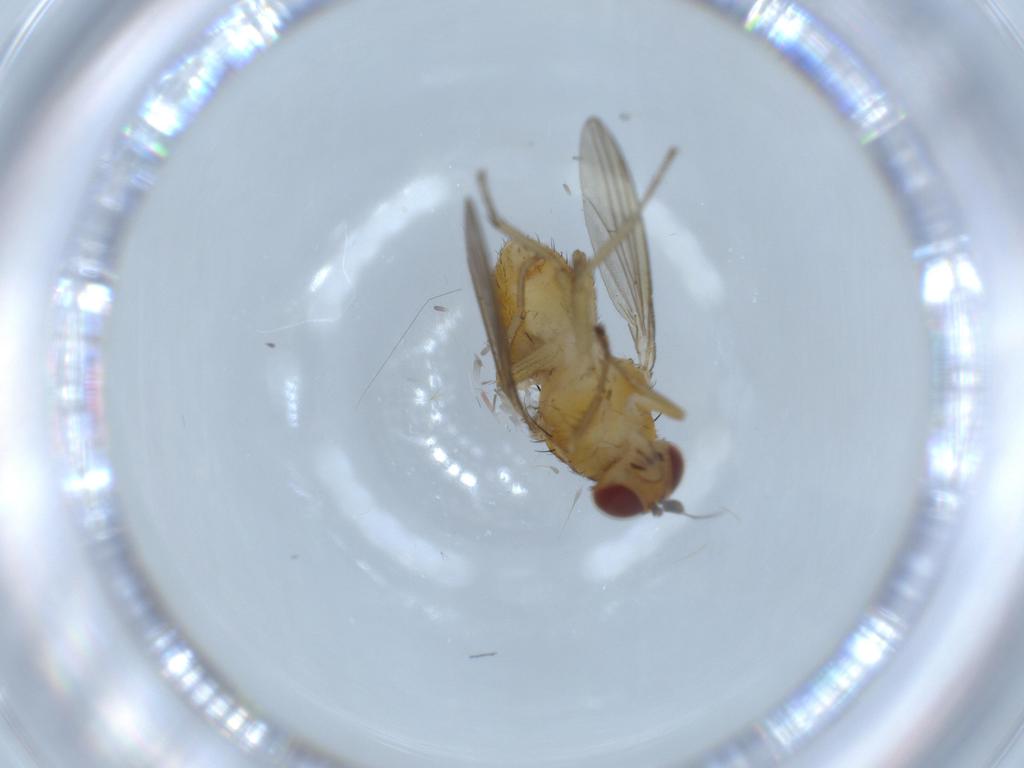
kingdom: Animalia
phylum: Arthropoda
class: Insecta
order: Diptera
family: Lauxaniidae
